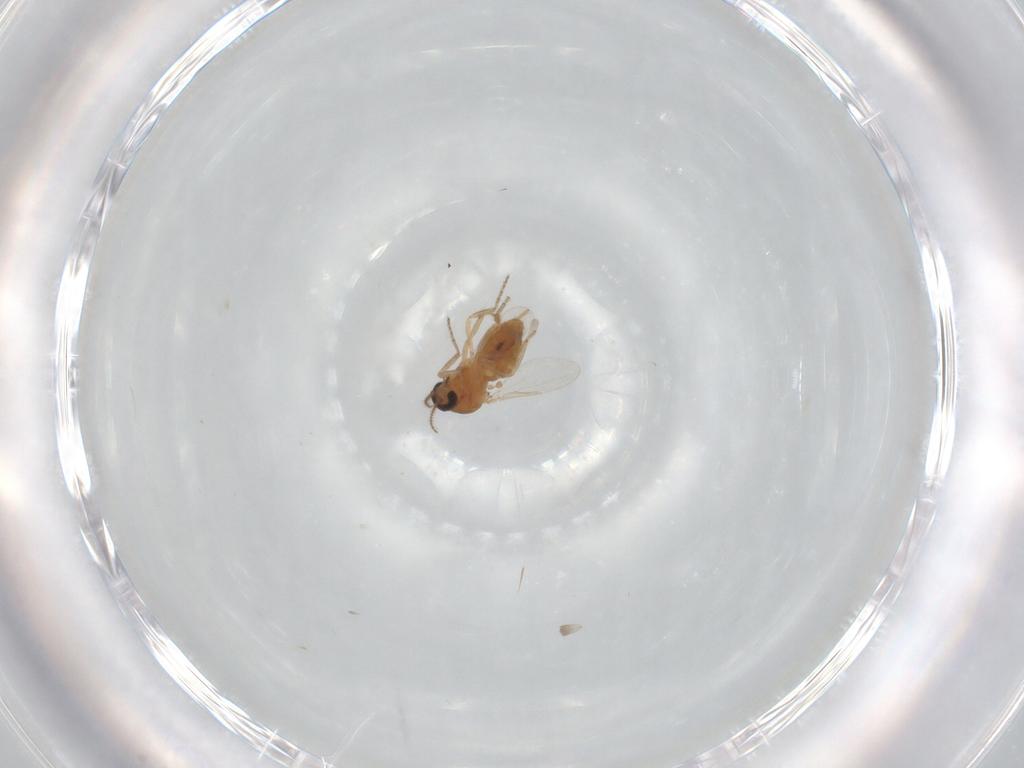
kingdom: Animalia
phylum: Arthropoda
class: Insecta
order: Diptera
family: Ceratopogonidae
